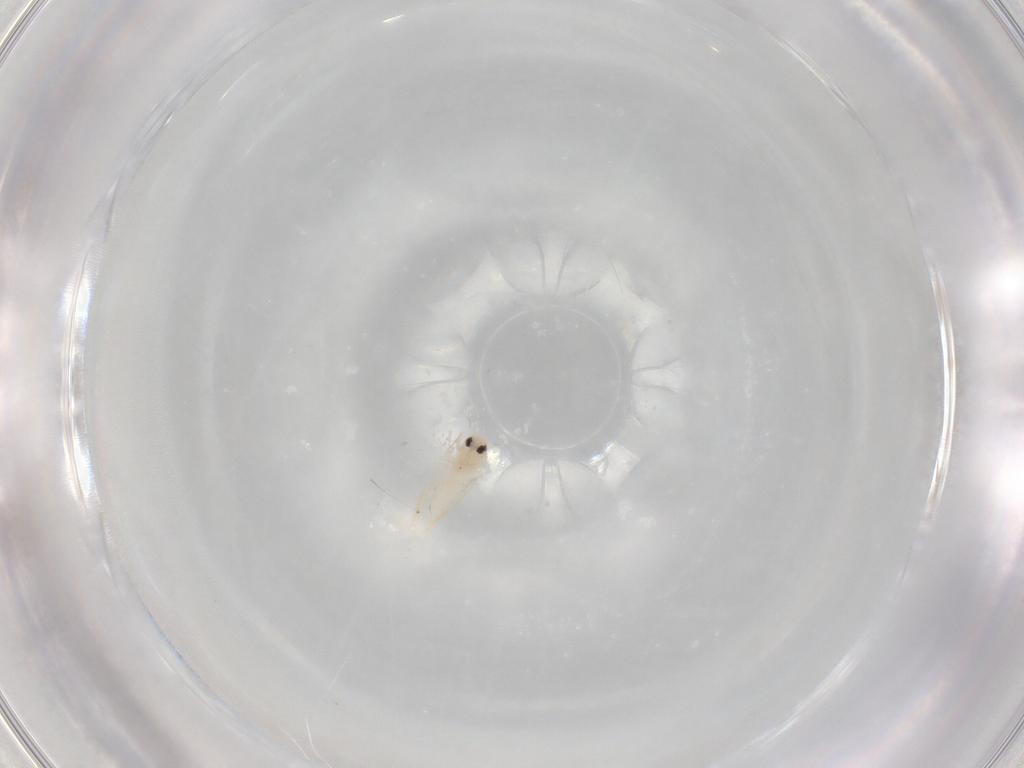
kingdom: Animalia
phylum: Arthropoda
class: Insecta
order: Hemiptera
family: Aleyrodidae
